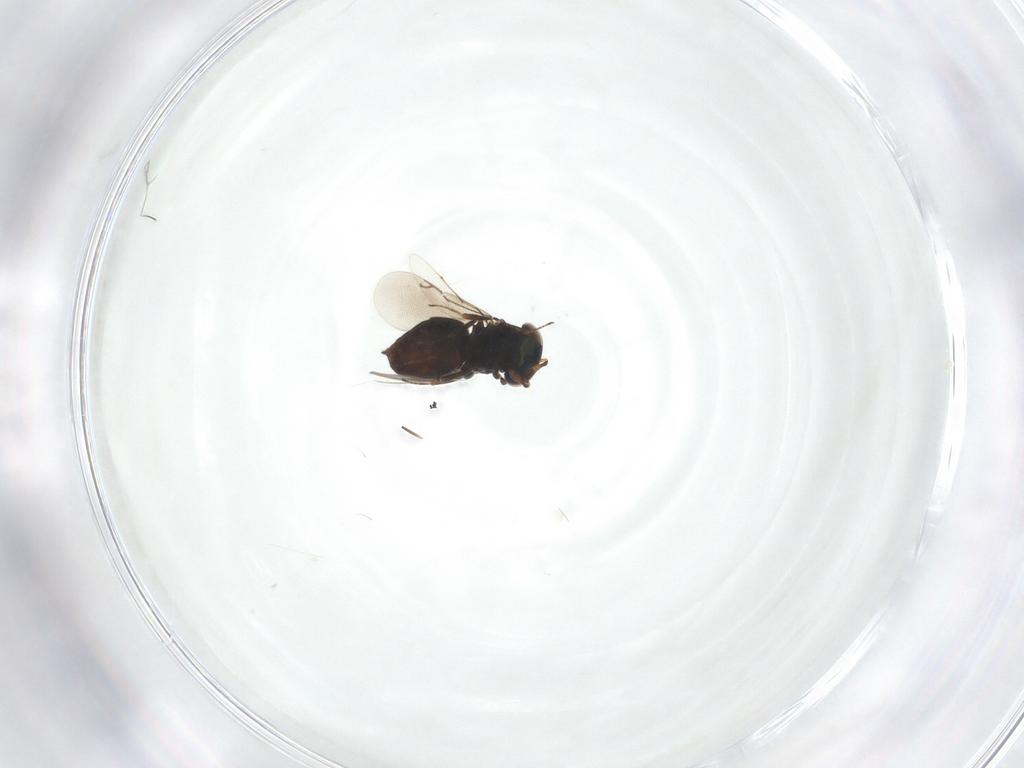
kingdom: Animalia
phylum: Arthropoda
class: Insecta
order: Hymenoptera
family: Eunotidae
